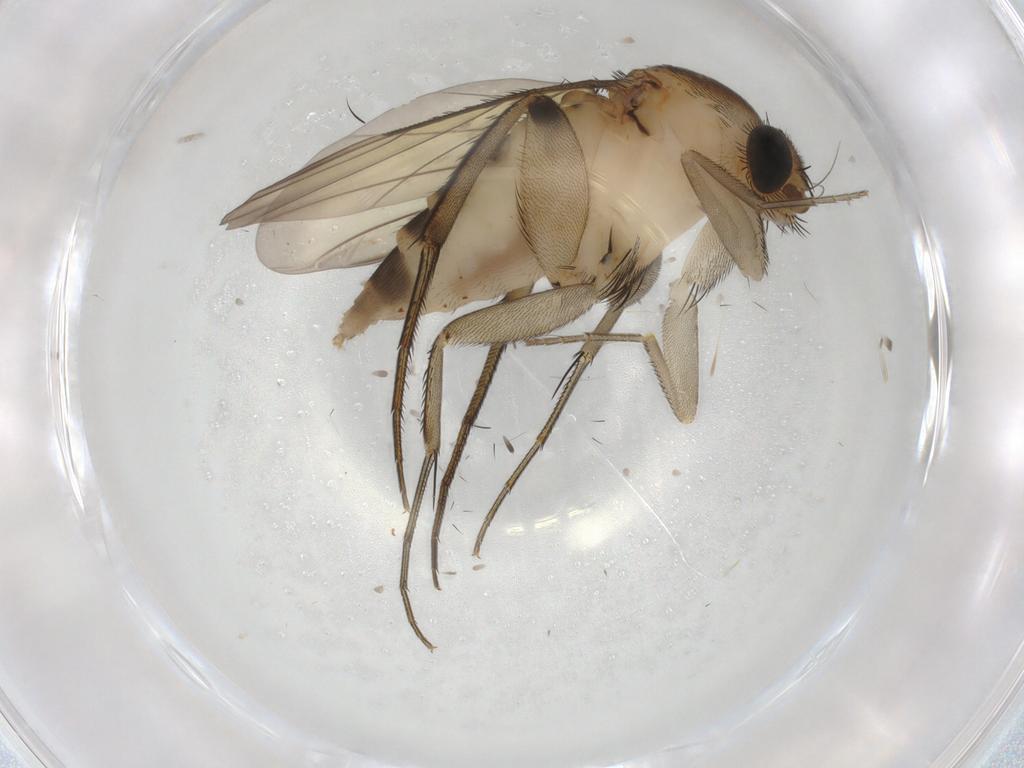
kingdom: Animalia
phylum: Arthropoda
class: Insecta
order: Diptera
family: Phoridae
